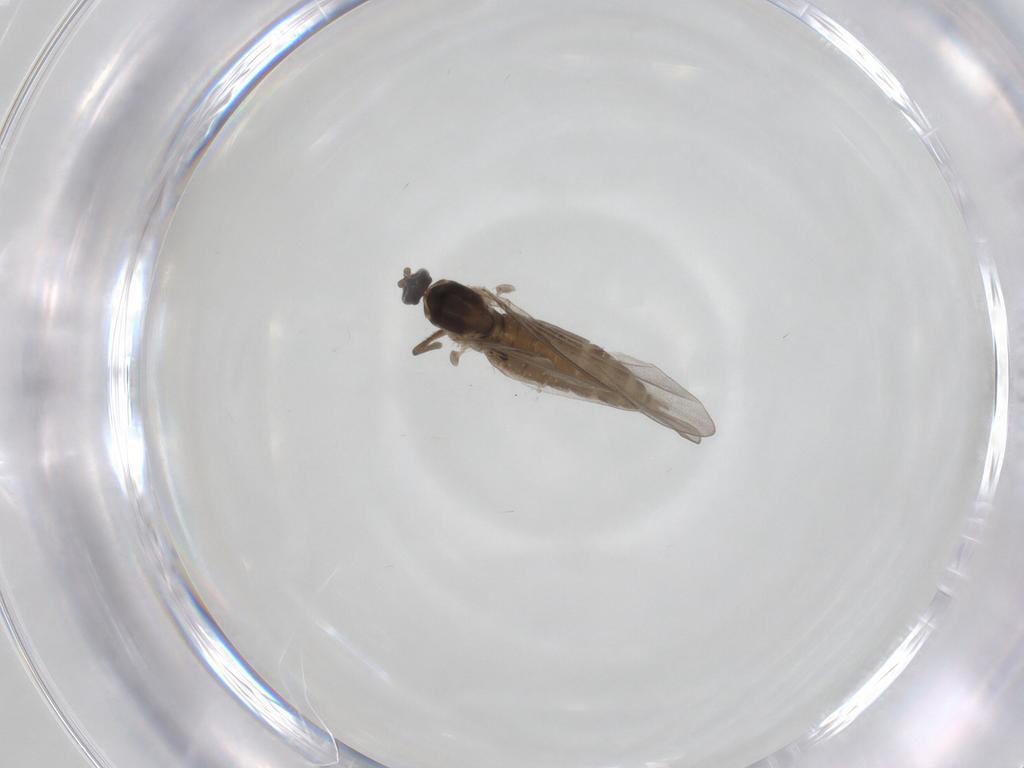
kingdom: Animalia
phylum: Arthropoda
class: Insecta
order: Diptera
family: Cecidomyiidae
